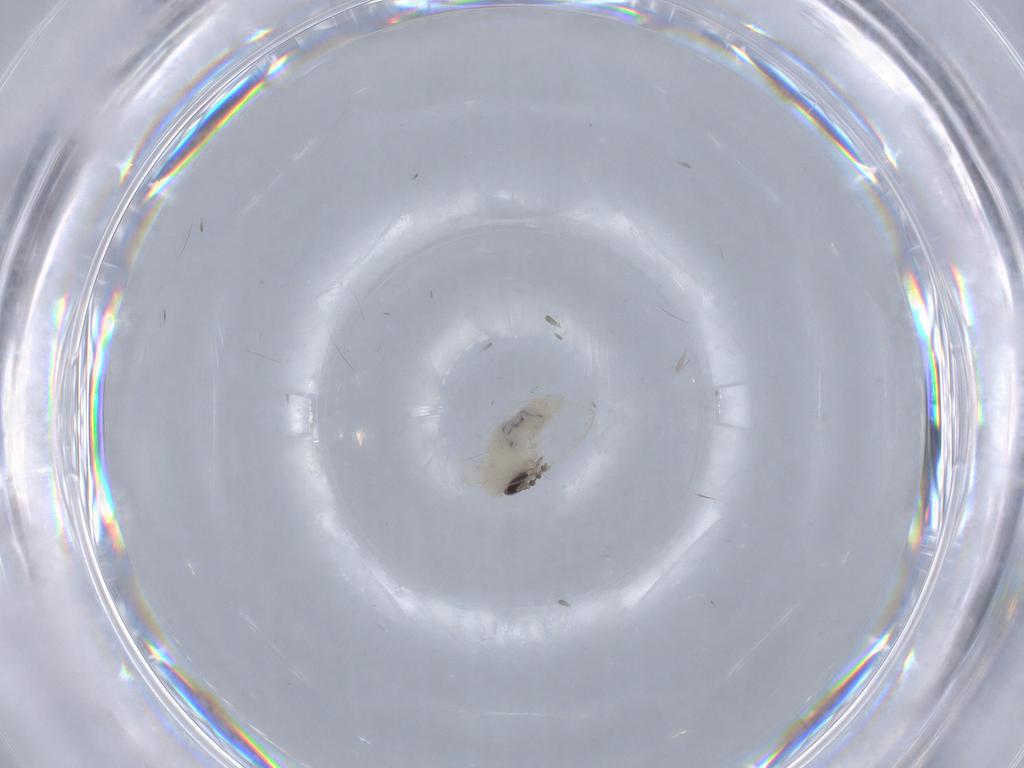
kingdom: Animalia
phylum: Arthropoda
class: Insecta
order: Diptera
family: Psychodidae
